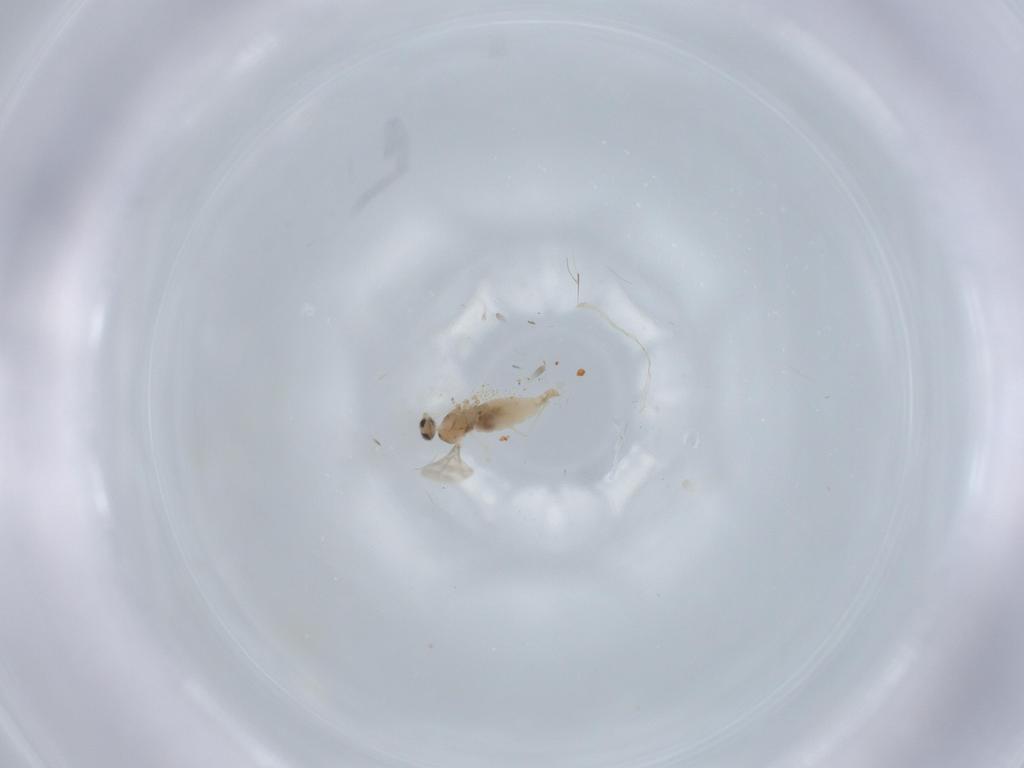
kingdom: Animalia
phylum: Arthropoda
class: Insecta
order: Diptera
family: Cecidomyiidae
